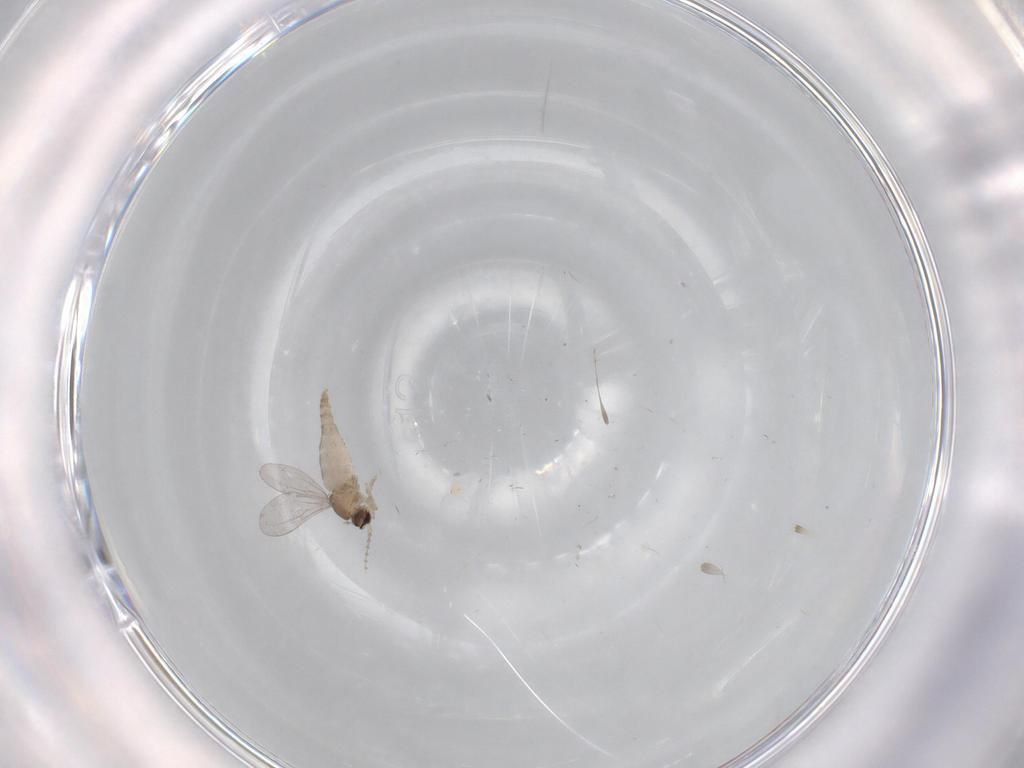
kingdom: Animalia
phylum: Arthropoda
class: Insecta
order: Diptera
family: Cecidomyiidae
